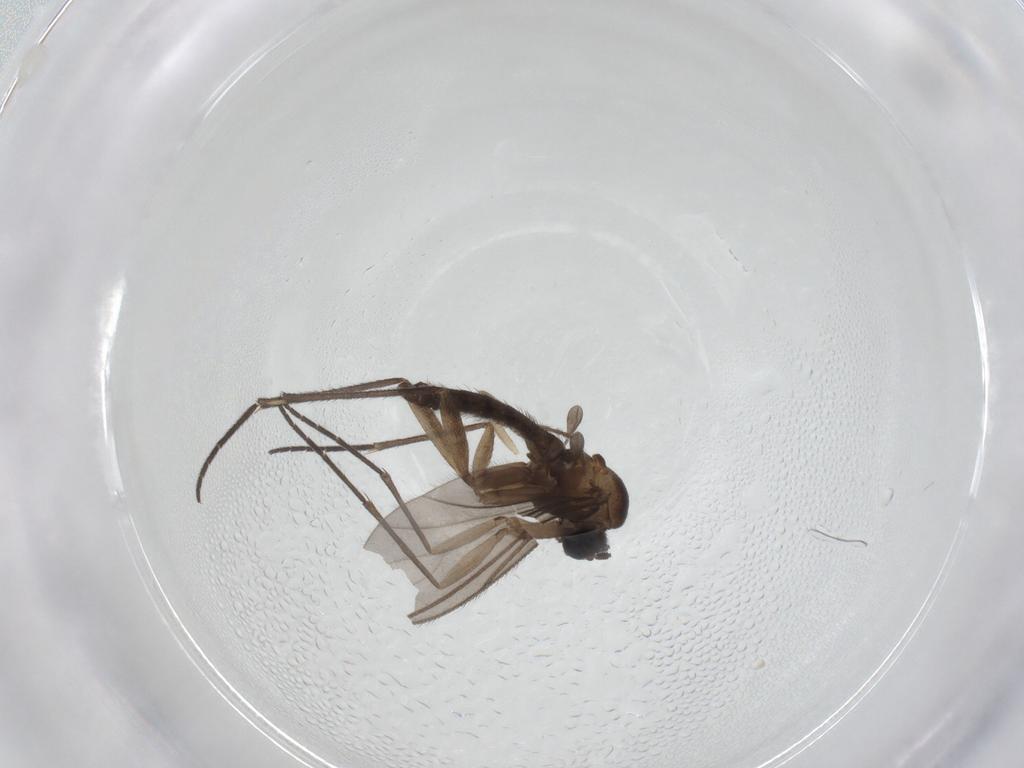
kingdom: Animalia
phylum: Arthropoda
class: Insecta
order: Diptera
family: Sciaridae
